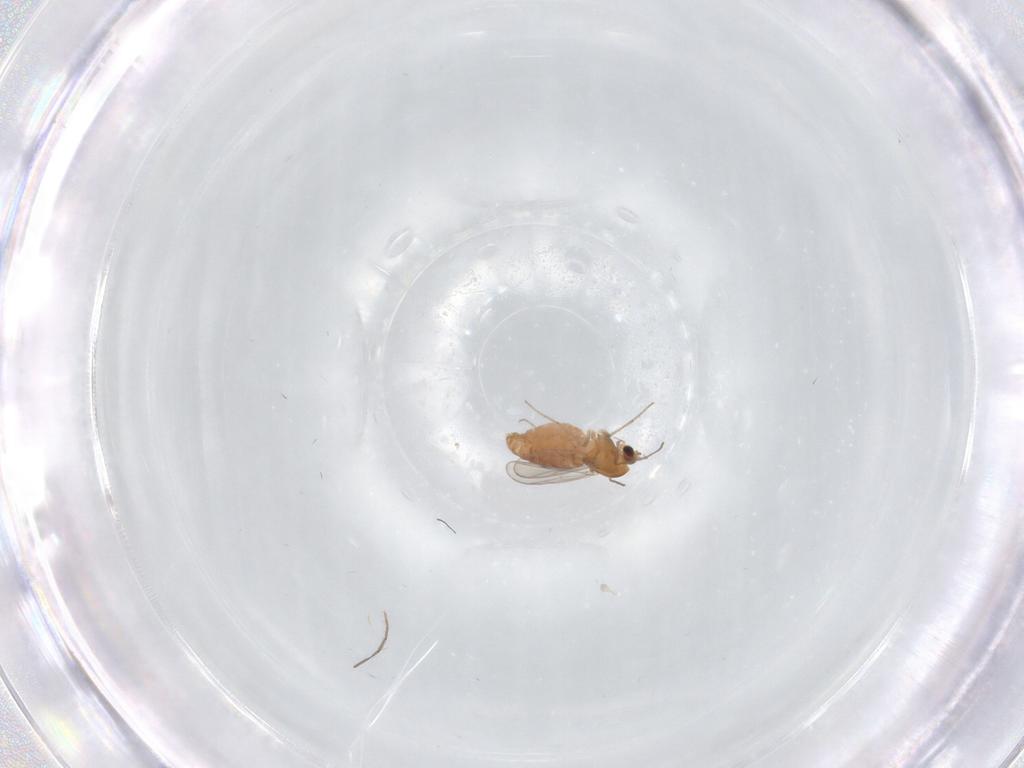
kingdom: Animalia
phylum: Arthropoda
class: Insecta
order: Diptera
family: Chironomidae
